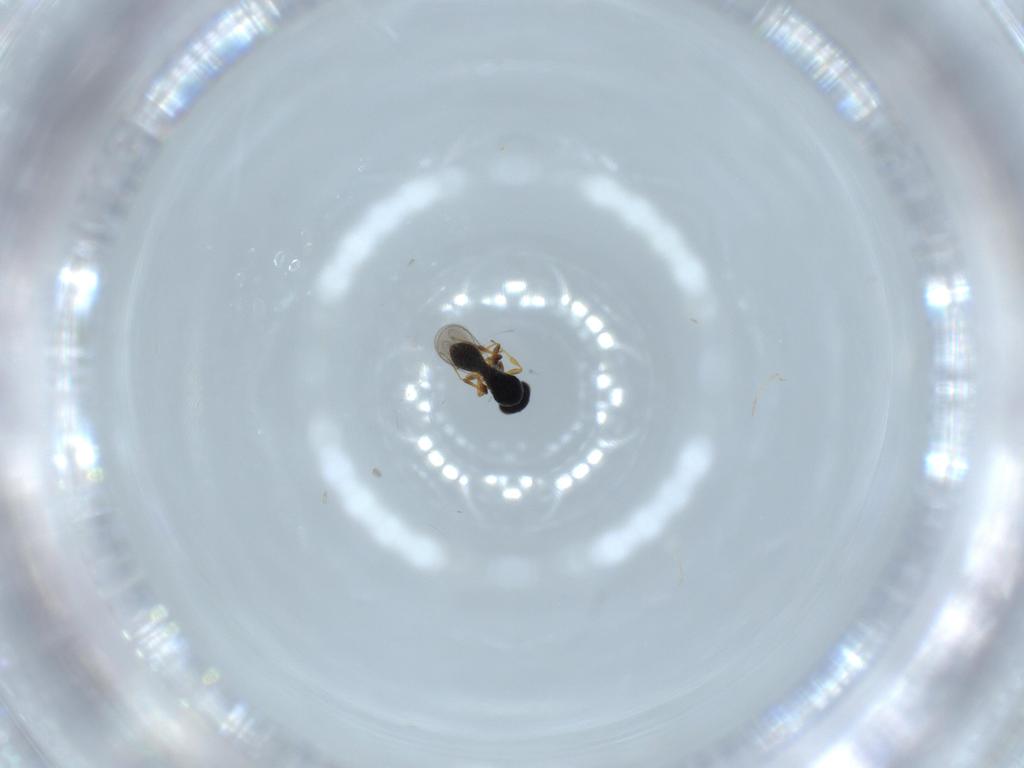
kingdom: Animalia
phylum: Arthropoda
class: Insecta
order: Hymenoptera
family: Platygastridae
